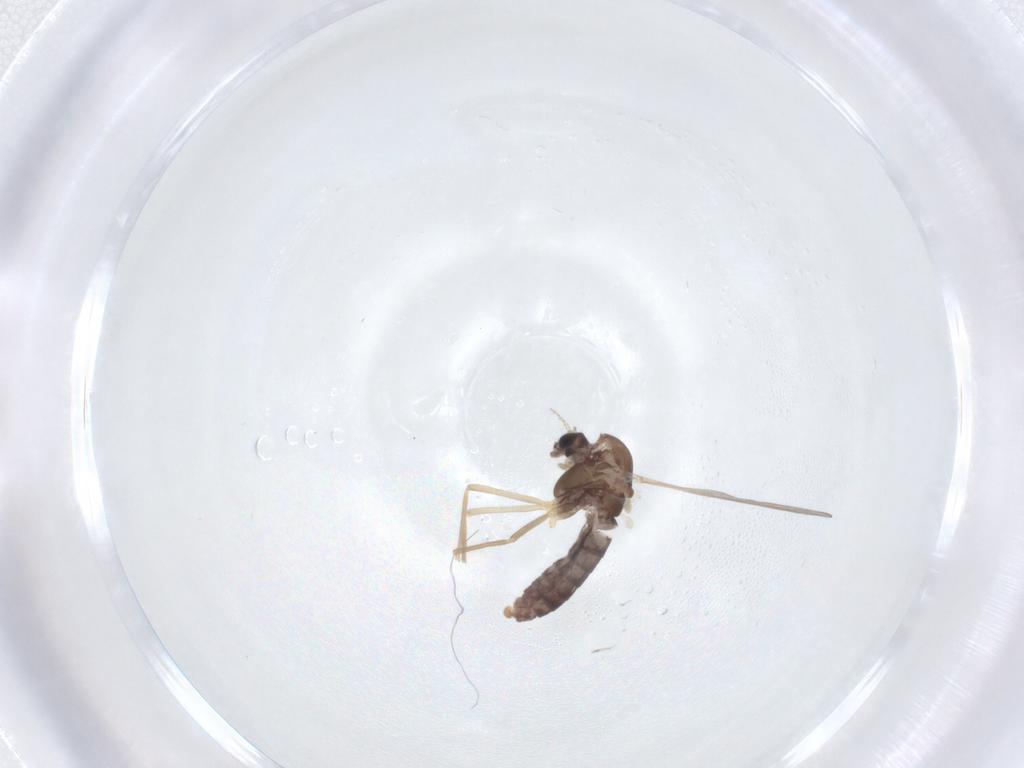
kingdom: Animalia
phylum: Arthropoda
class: Insecta
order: Diptera
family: Chironomidae
